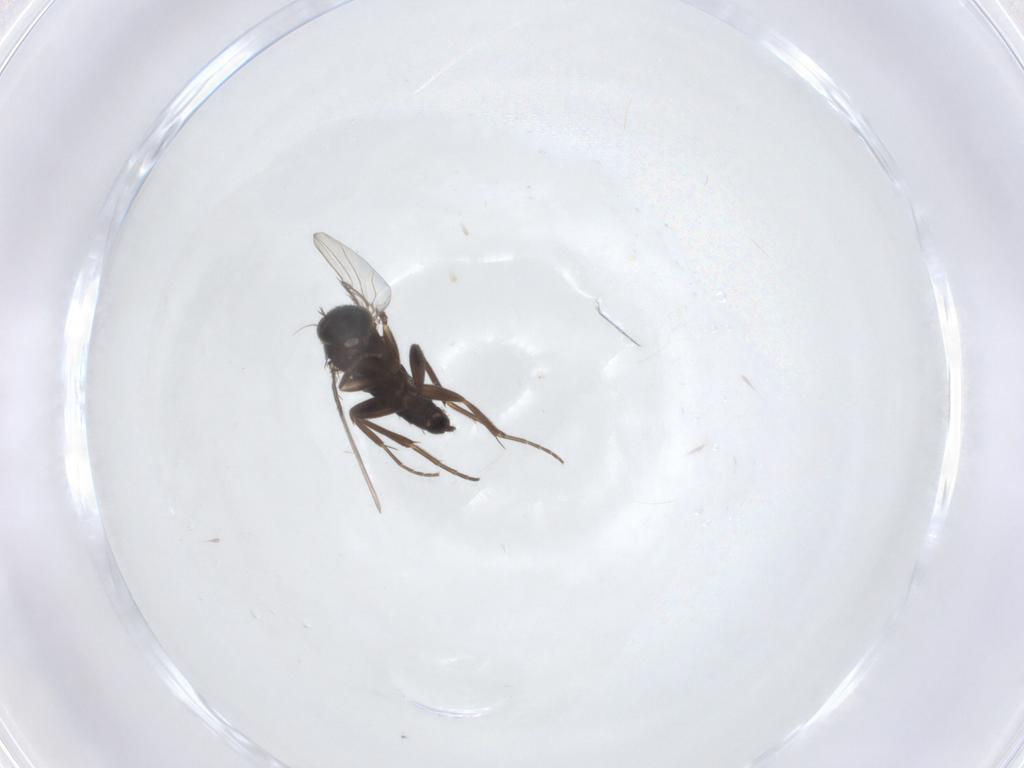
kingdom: Animalia
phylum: Arthropoda
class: Insecta
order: Diptera
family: Phoridae
